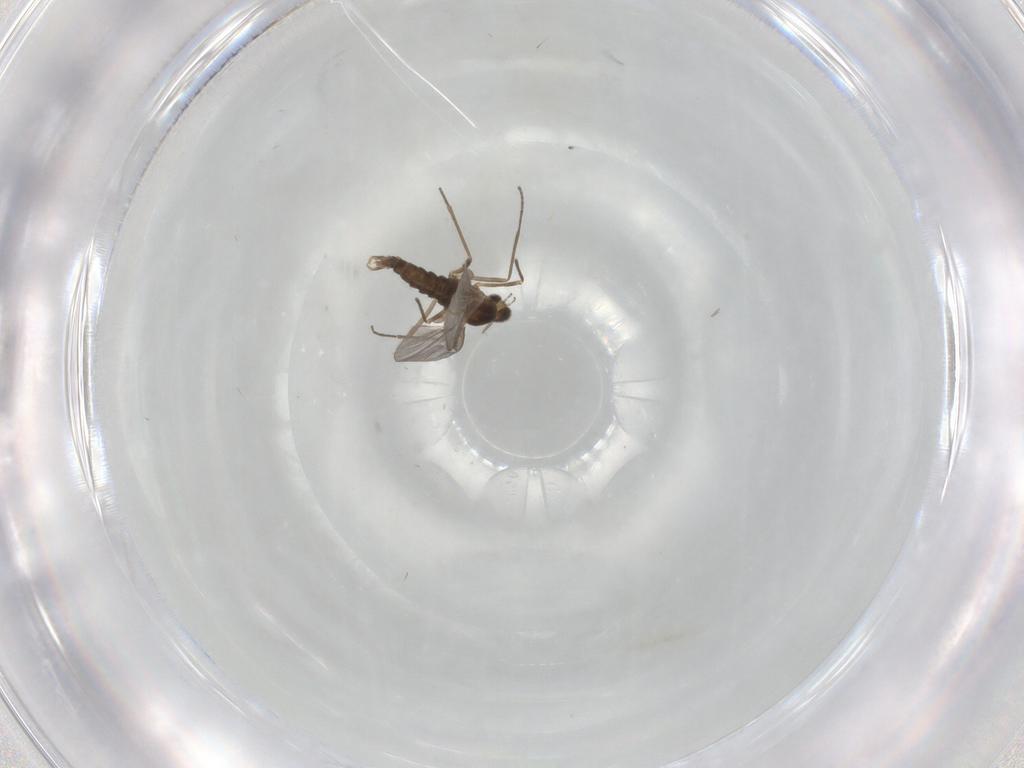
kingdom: Animalia
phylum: Arthropoda
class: Insecta
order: Diptera
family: Cecidomyiidae
